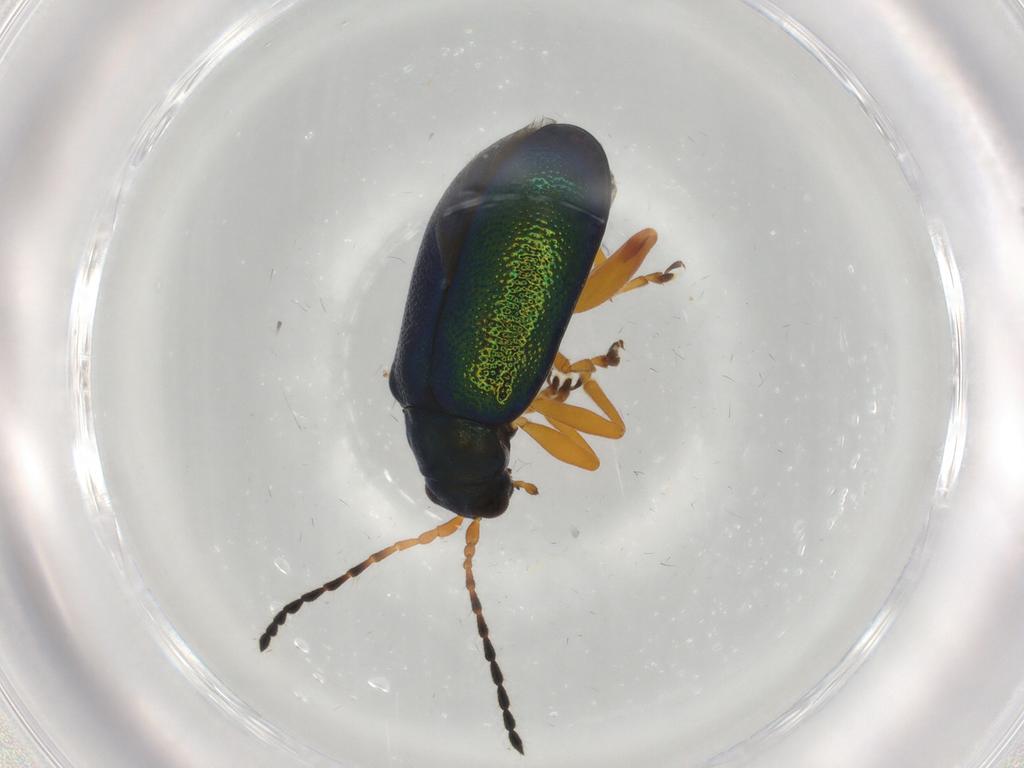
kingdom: Animalia
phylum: Arthropoda
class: Insecta
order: Coleoptera
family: Chrysomelidae
